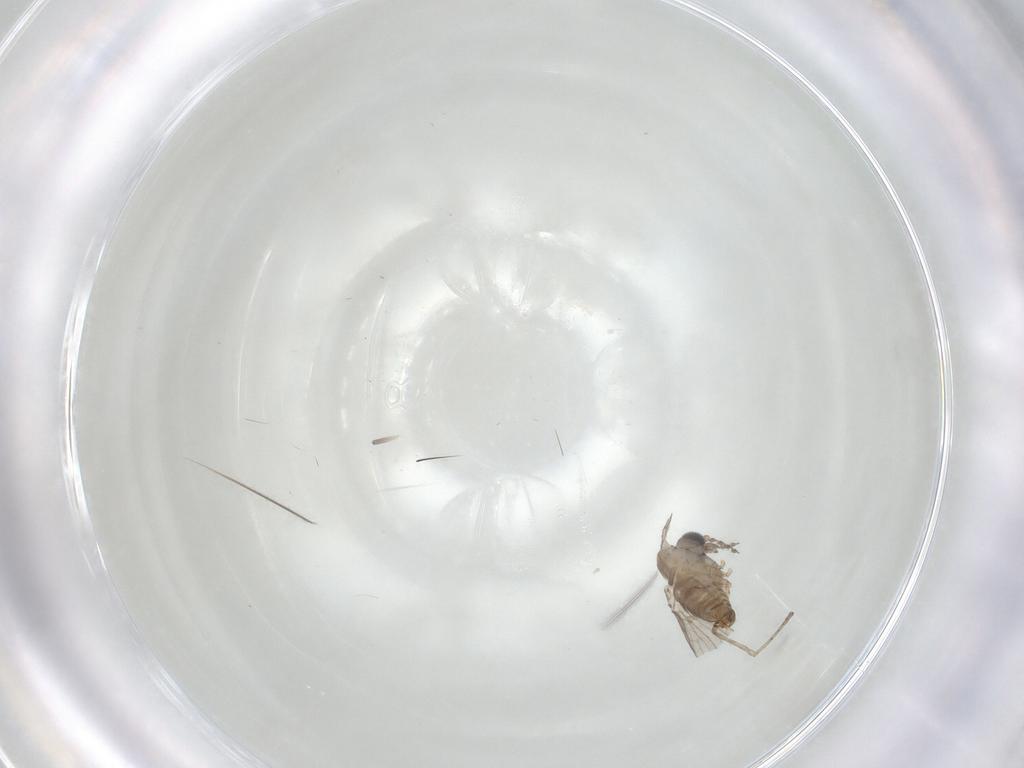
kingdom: Animalia
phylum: Arthropoda
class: Insecta
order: Diptera
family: Psychodidae
